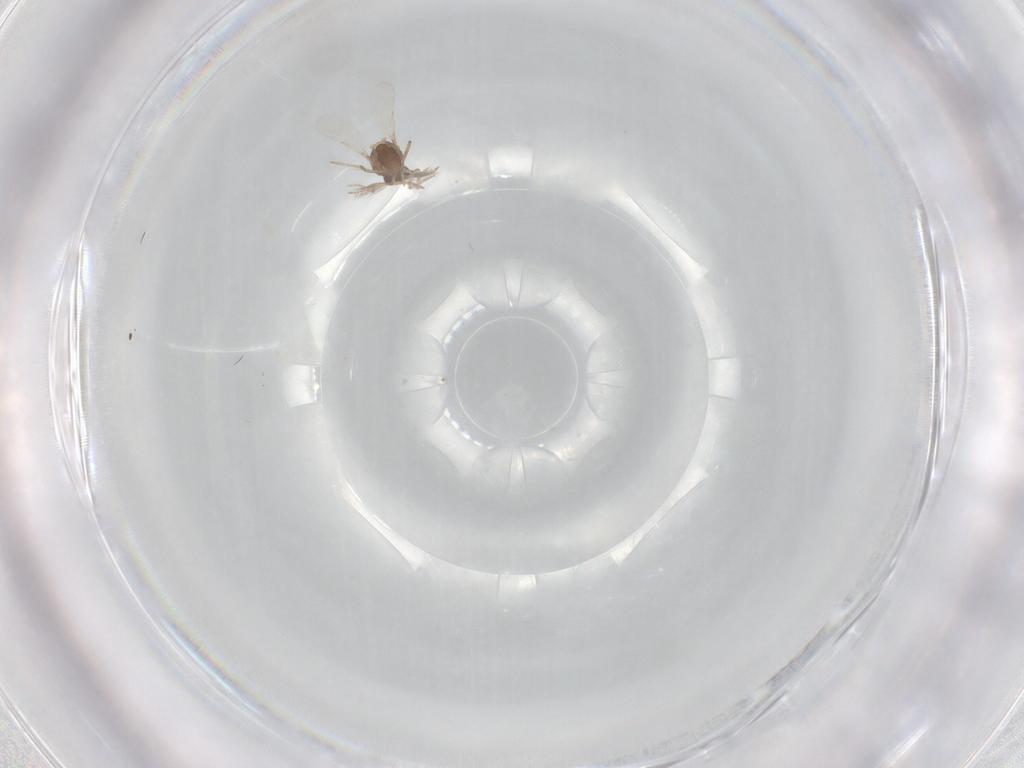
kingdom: Animalia
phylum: Arthropoda
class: Insecta
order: Diptera
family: Ceratopogonidae
